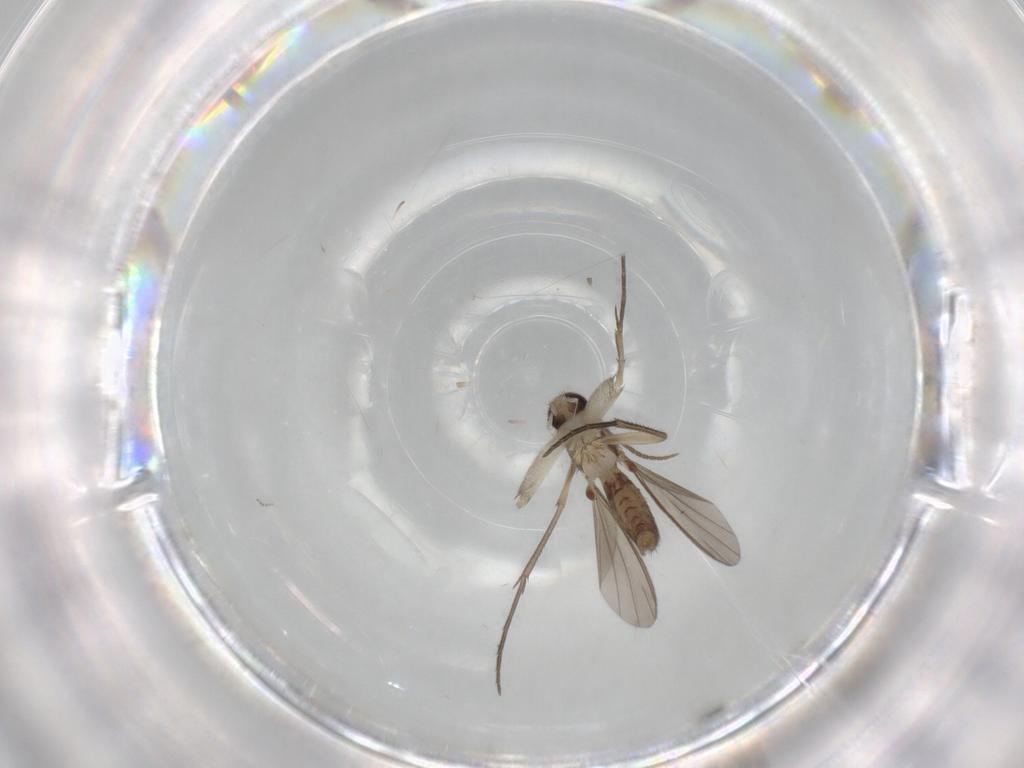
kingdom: Animalia
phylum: Arthropoda
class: Insecta
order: Diptera
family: Mycetophilidae
